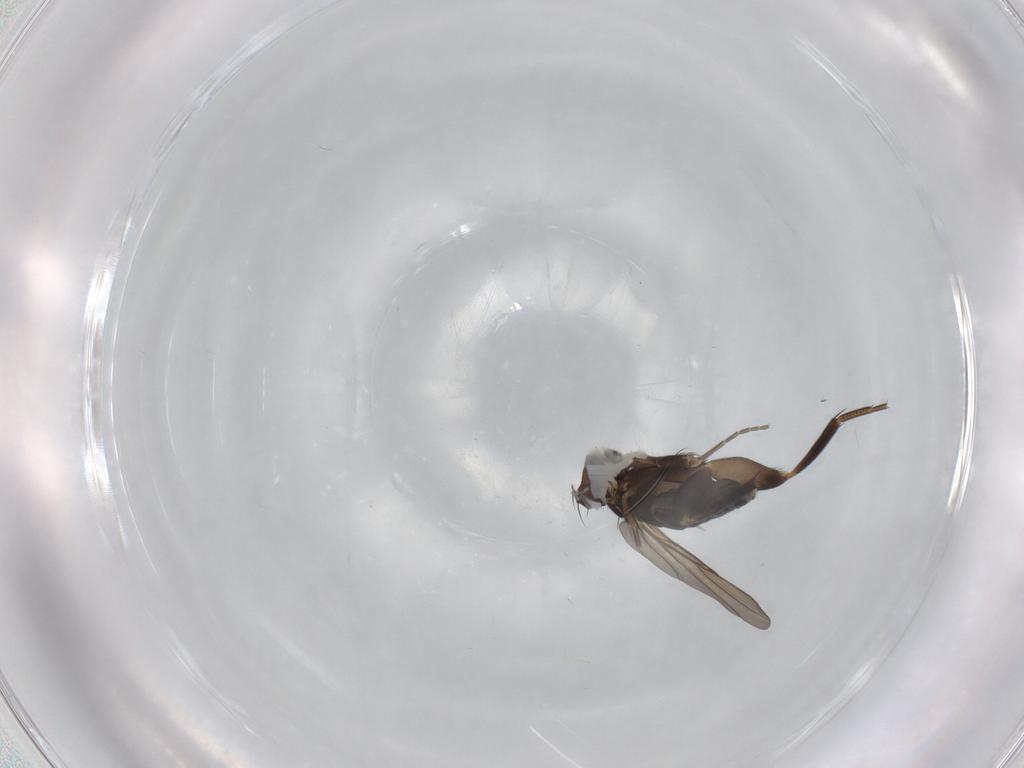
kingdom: Animalia
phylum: Arthropoda
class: Insecta
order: Diptera
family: Phoridae
